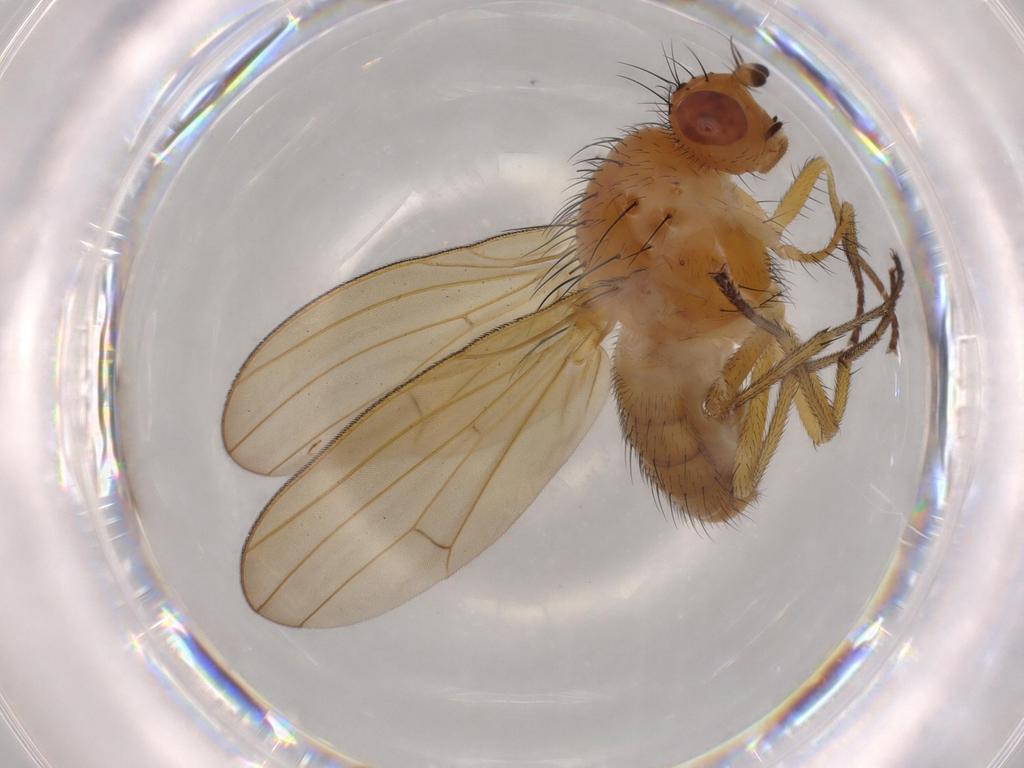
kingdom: Animalia
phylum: Arthropoda
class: Insecta
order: Diptera
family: Lauxaniidae
